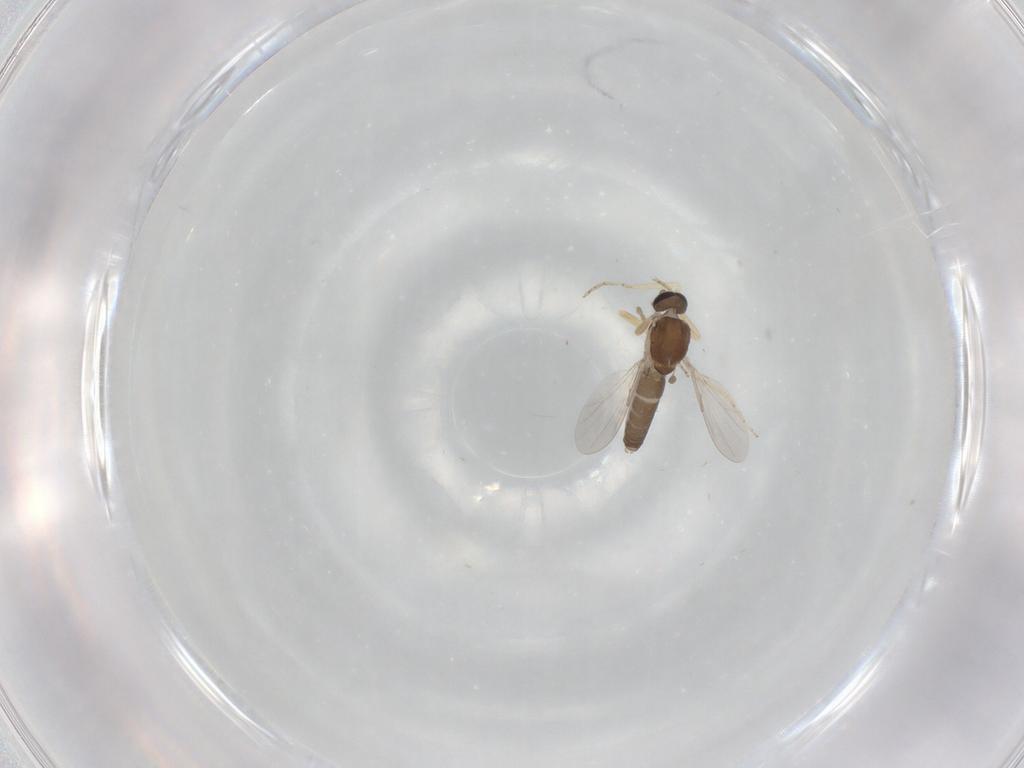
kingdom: Animalia
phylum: Arthropoda
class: Insecta
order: Diptera
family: Ceratopogonidae
